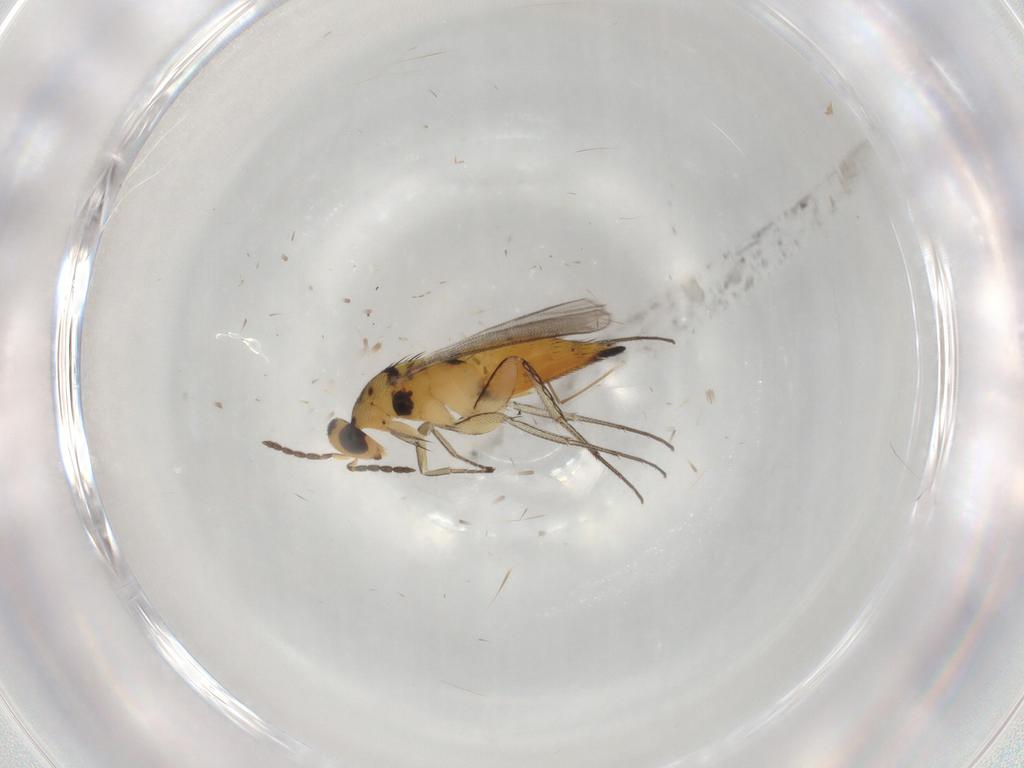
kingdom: Animalia
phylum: Arthropoda
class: Insecta
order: Hymenoptera
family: Eulophidae
